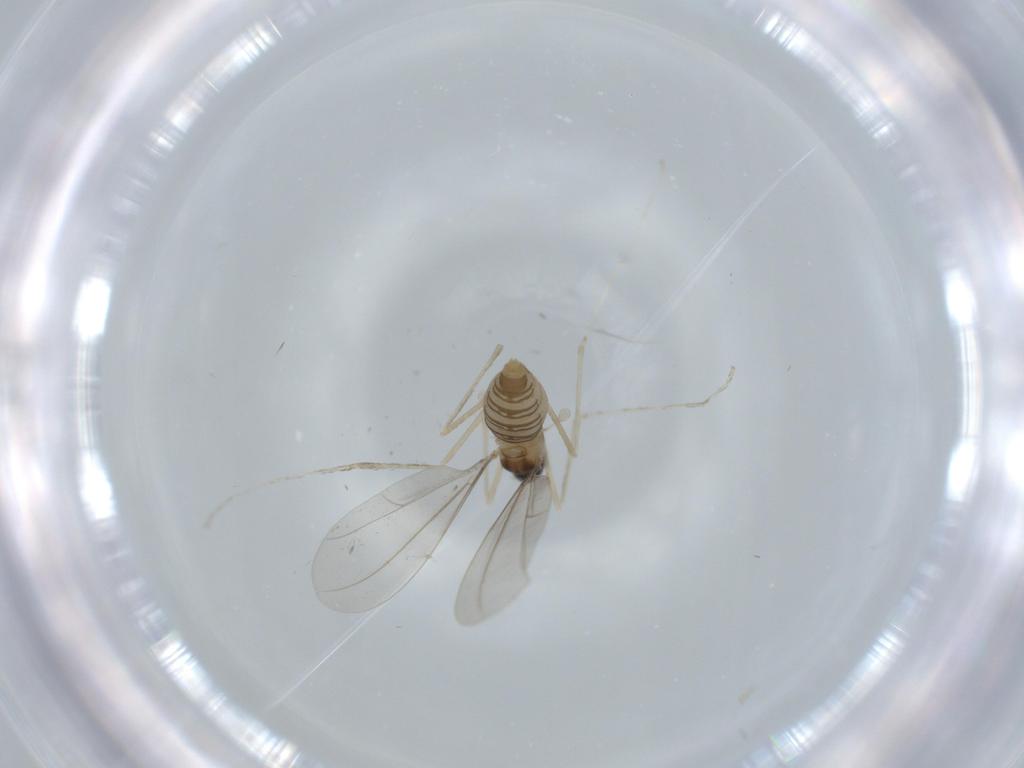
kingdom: Animalia
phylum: Arthropoda
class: Insecta
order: Diptera
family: Cecidomyiidae
